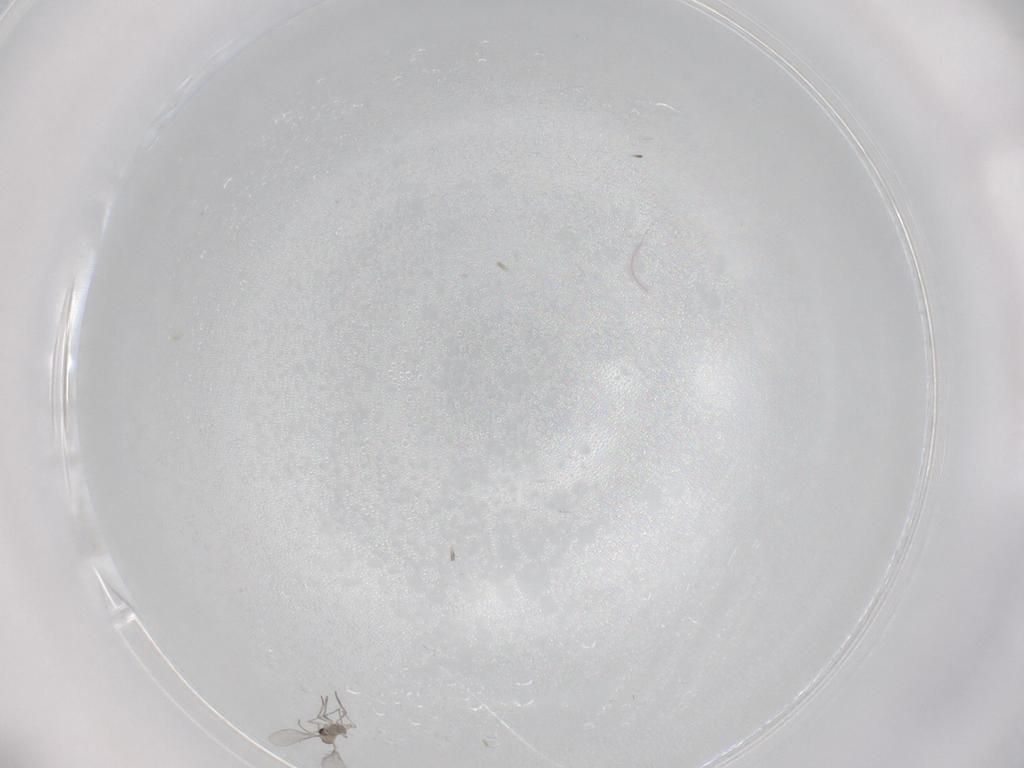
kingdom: Animalia
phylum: Arthropoda
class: Insecta
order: Diptera
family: Cecidomyiidae
